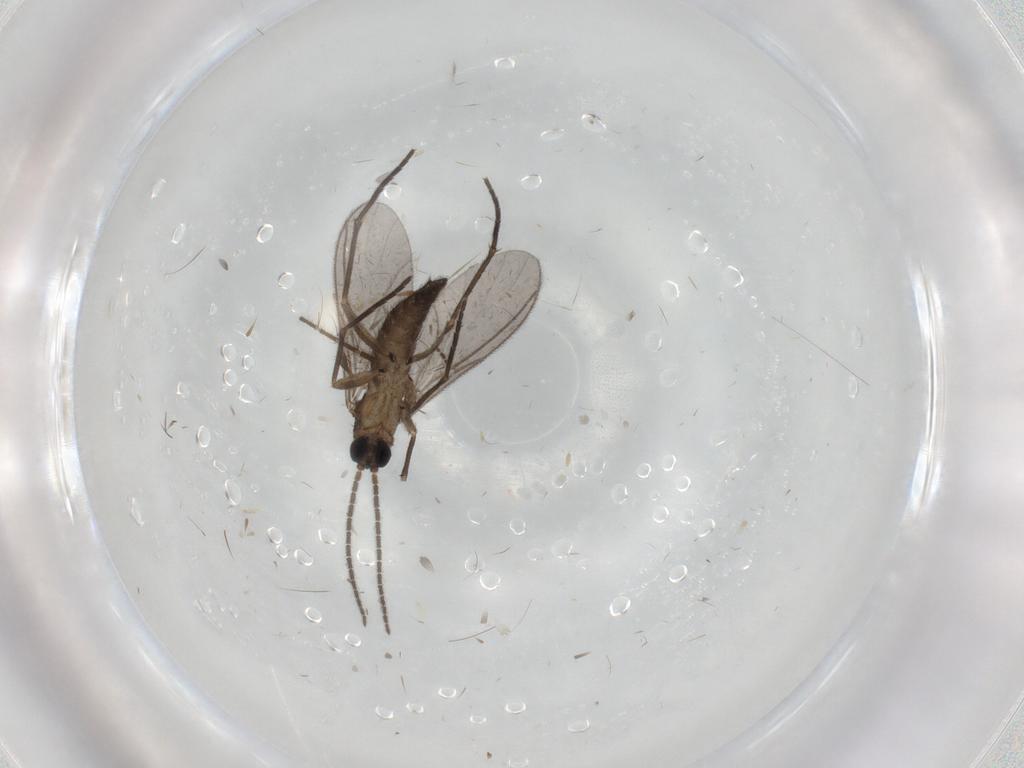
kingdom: Animalia
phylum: Arthropoda
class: Insecta
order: Diptera
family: Sciaridae
